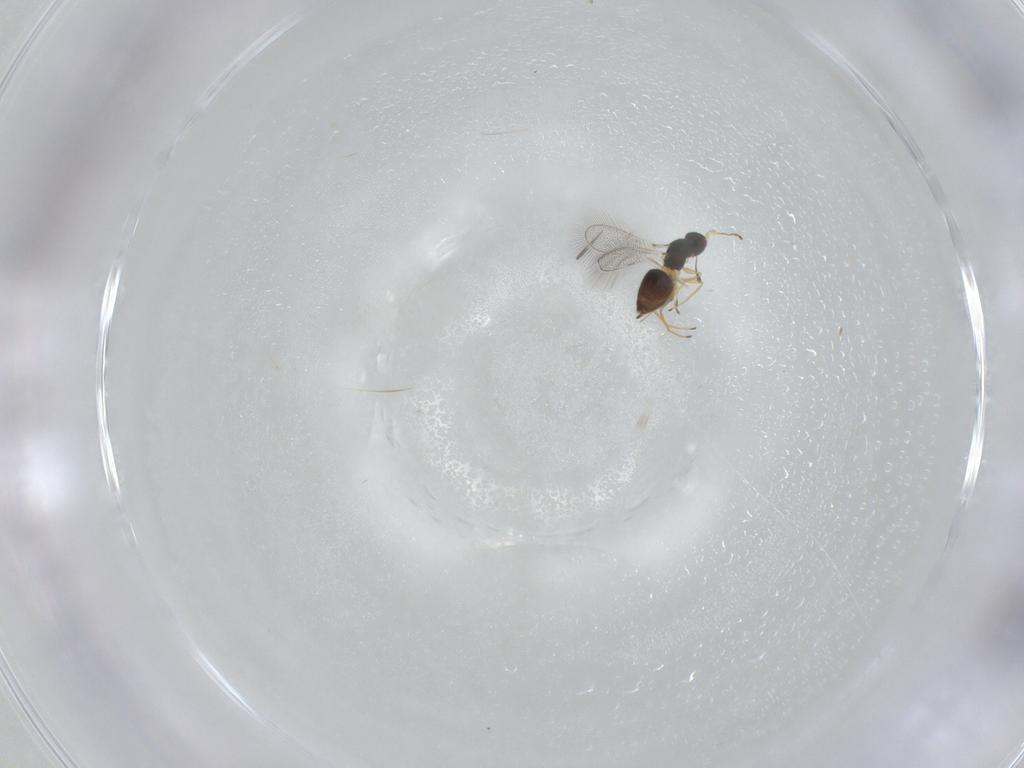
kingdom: Animalia
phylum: Arthropoda
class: Insecta
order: Hymenoptera
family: Mymaridae
